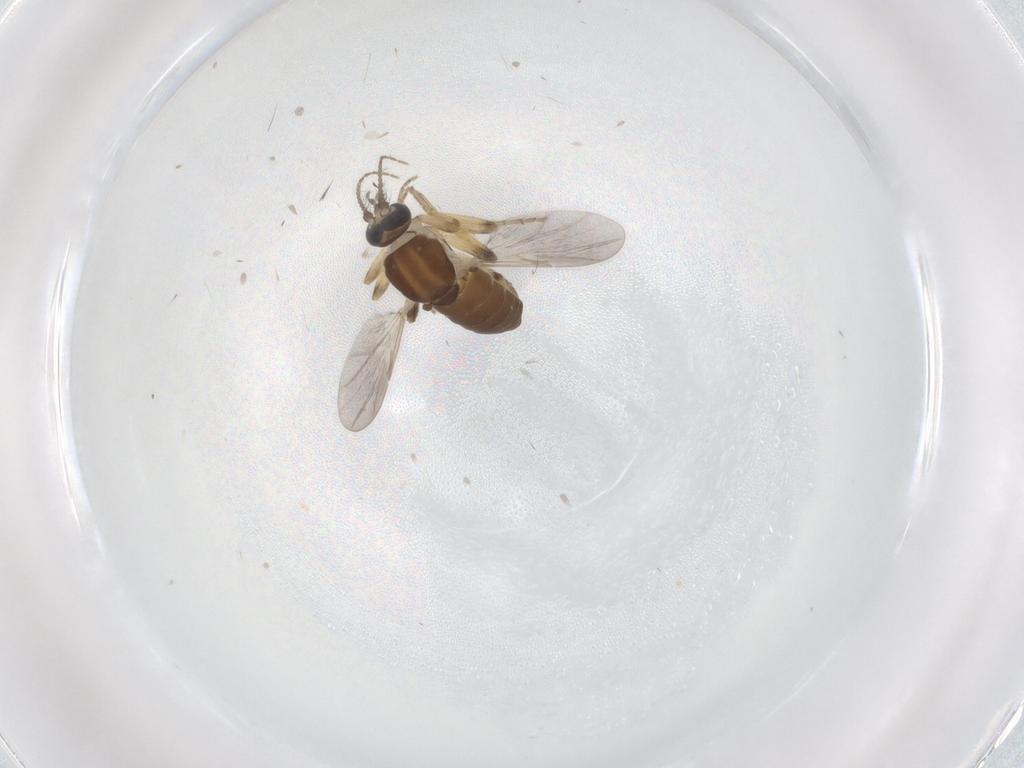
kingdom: Animalia
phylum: Arthropoda
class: Insecta
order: Diptera
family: Ceratopogonidae
